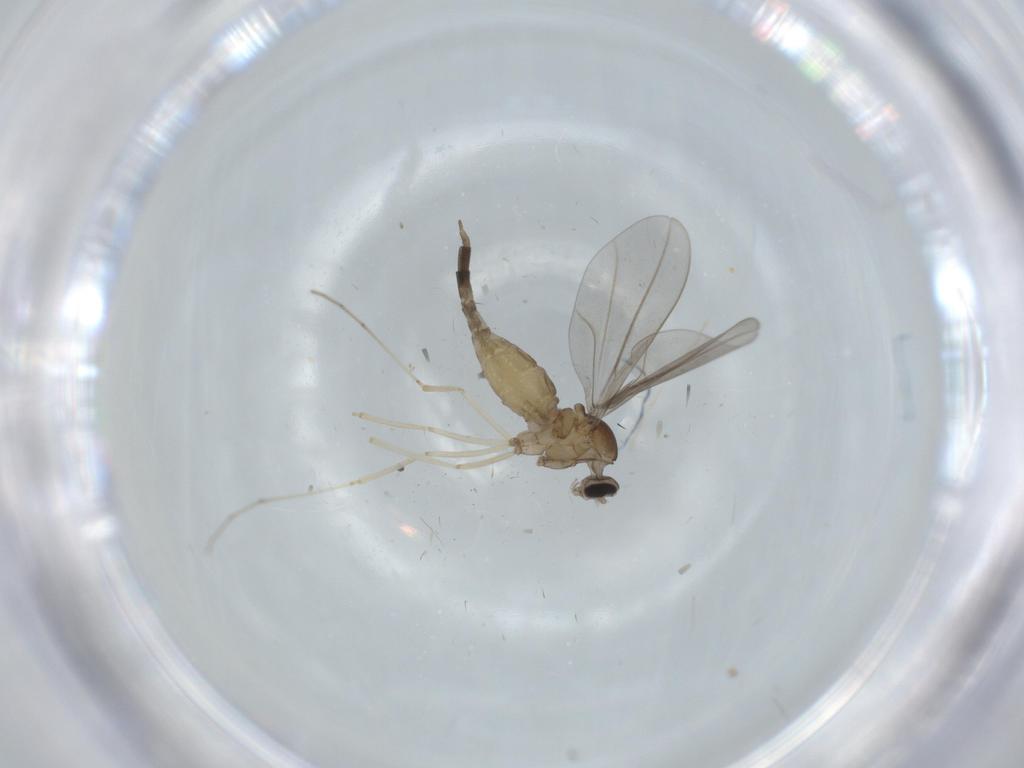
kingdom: Animalia
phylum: Arthropoda
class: Insecta
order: Diptera
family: Cecidomyiidae
